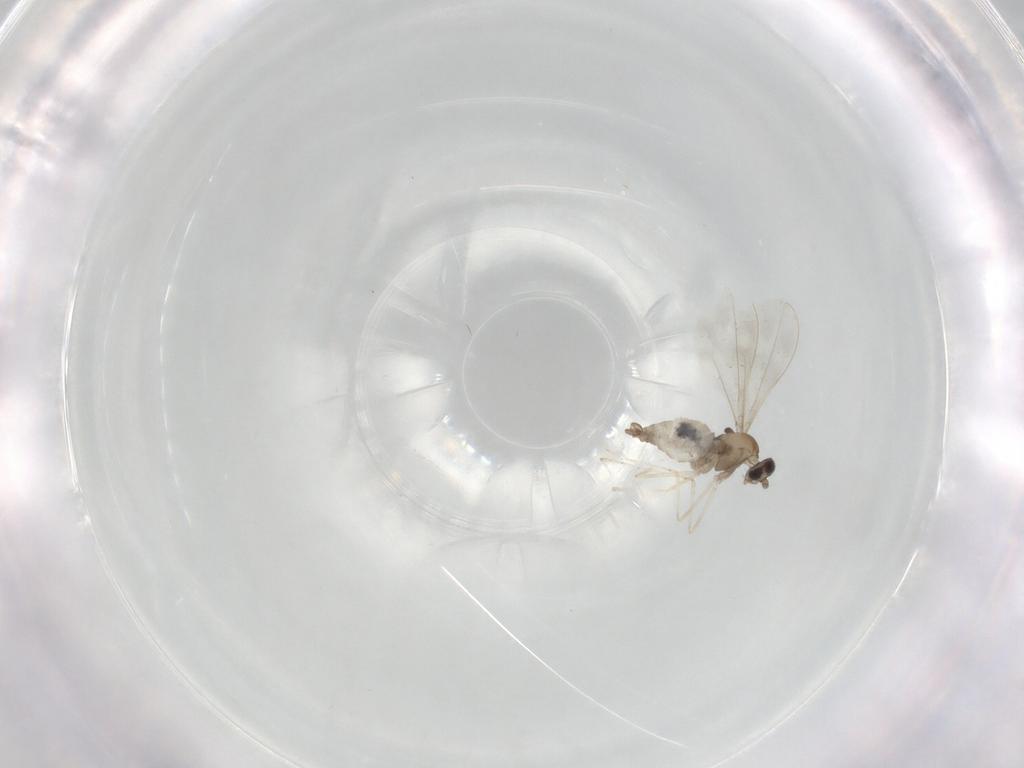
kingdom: Animalia
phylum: Arthropoda
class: Insecta
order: Diptera
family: Cecidomyiidae
